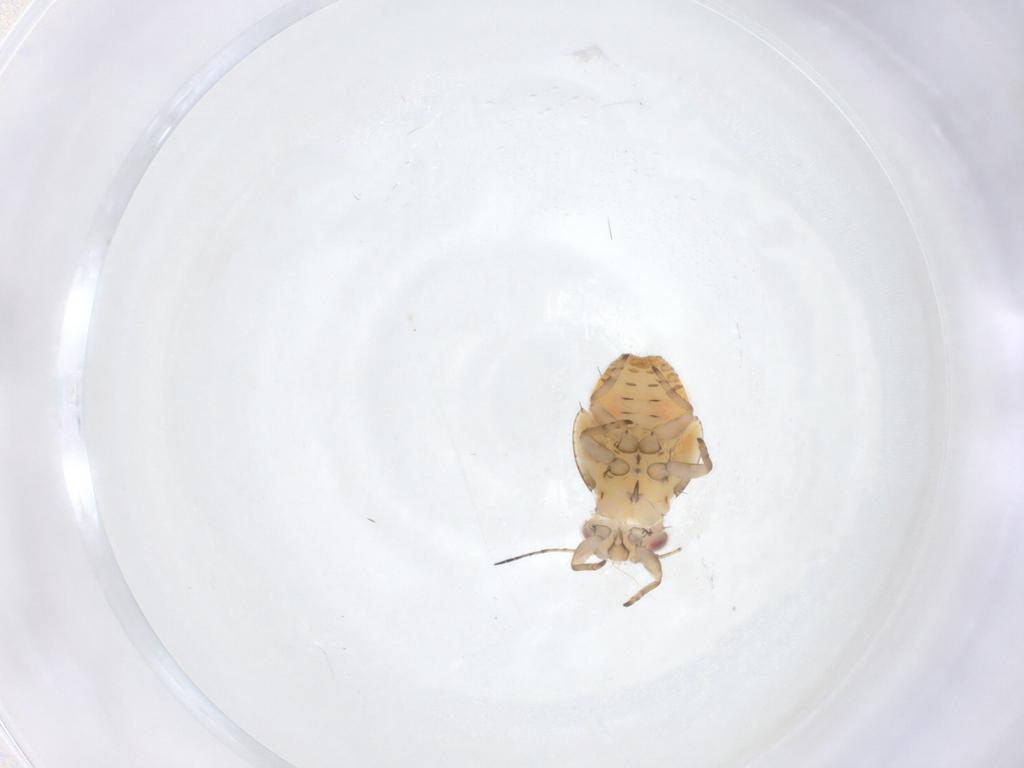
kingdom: Animalia
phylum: Arthropoda
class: Insecta
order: Hemiptera
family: Psyllidae
